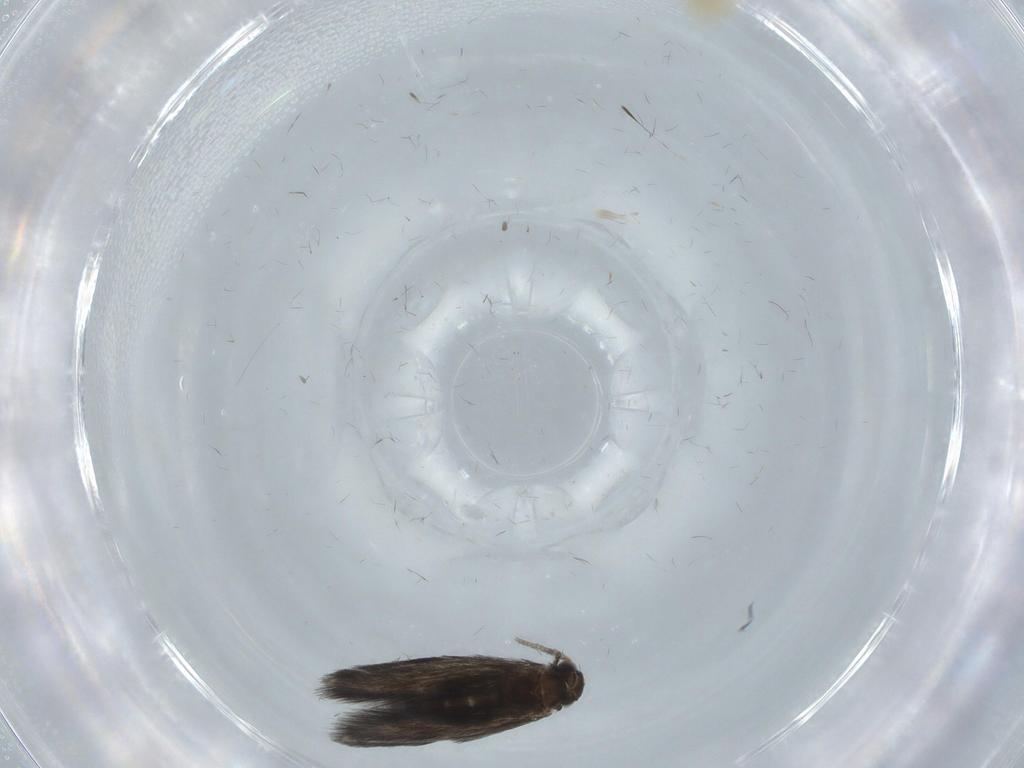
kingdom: Animalia
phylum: Arthropoda
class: Insecta
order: Trichoptera
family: Hydroptilidae
